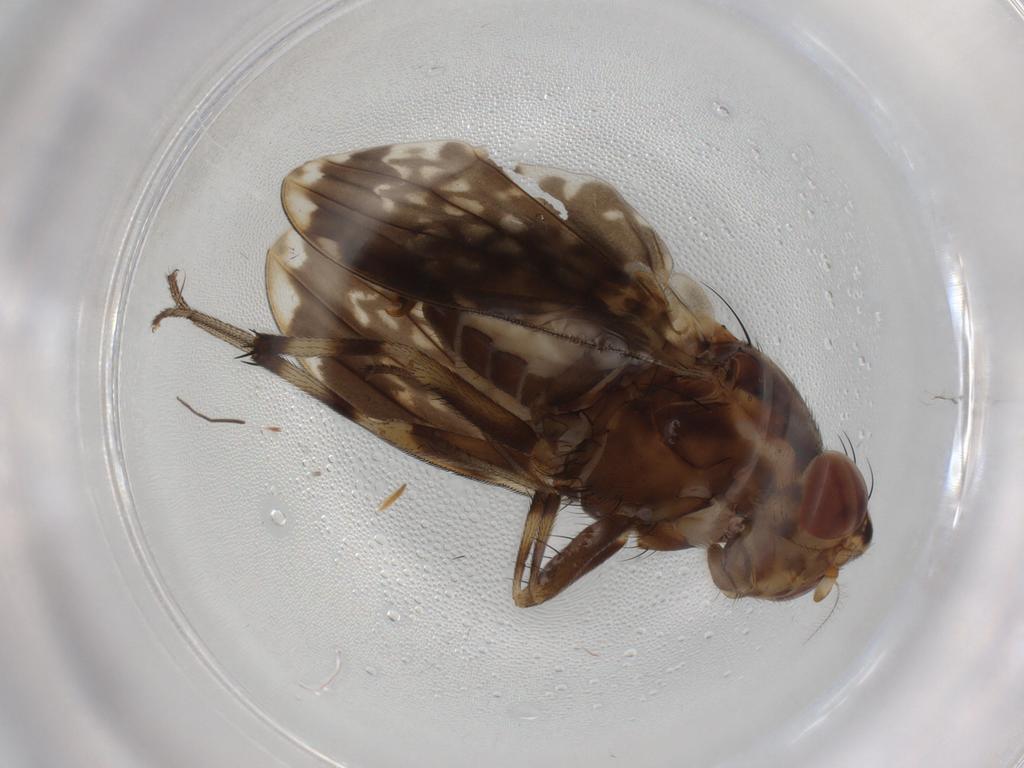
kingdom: Animalia
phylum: Arthropoda
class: Insecta
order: Diptera
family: Lauxaniidae
